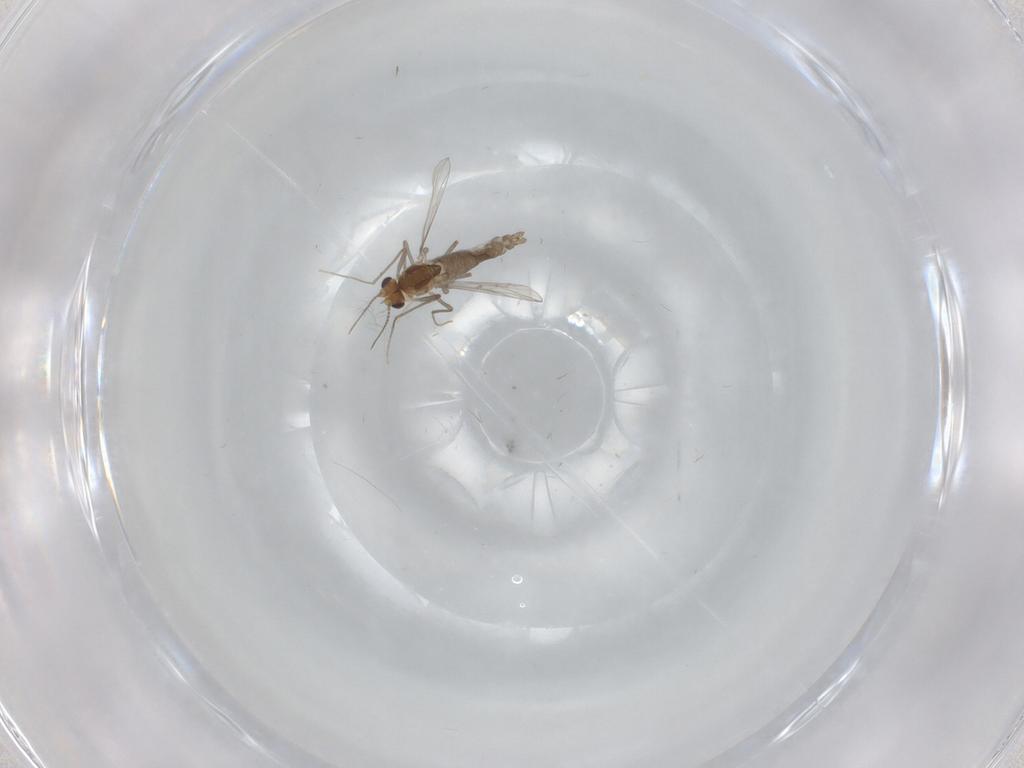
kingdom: Animalia
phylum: Arthropoda
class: Insecta
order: Diptera
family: Chironomidae
